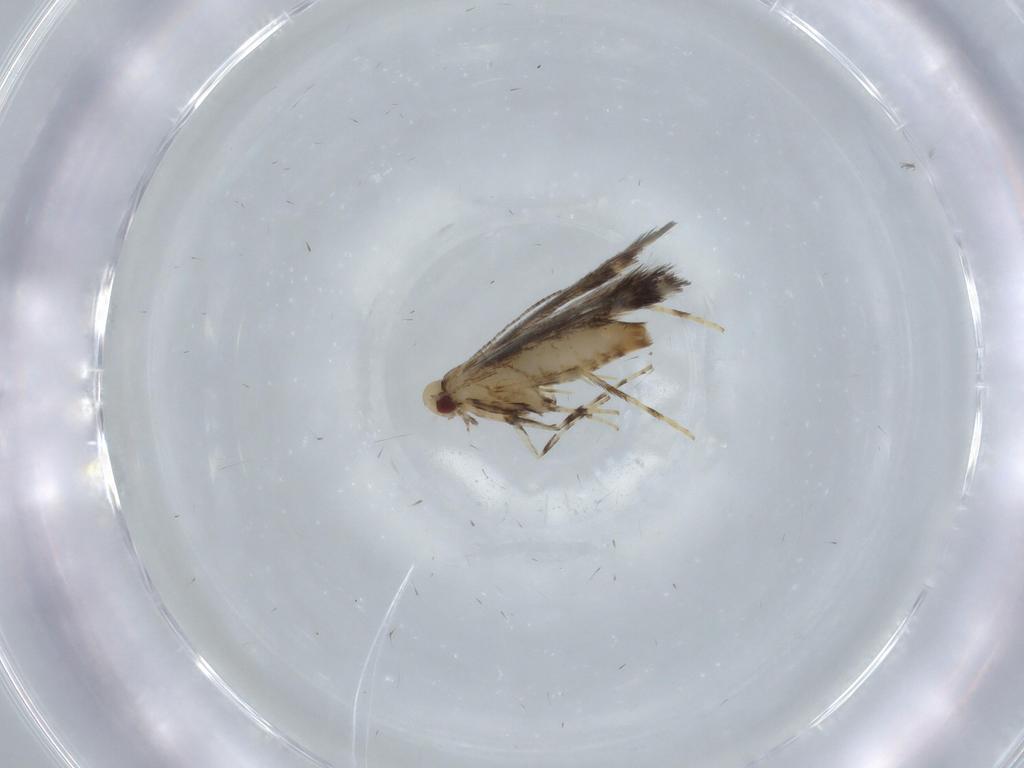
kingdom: Animalia
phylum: Arthropoda
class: Insecta
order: Lepidoptera
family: Gracillariidae
